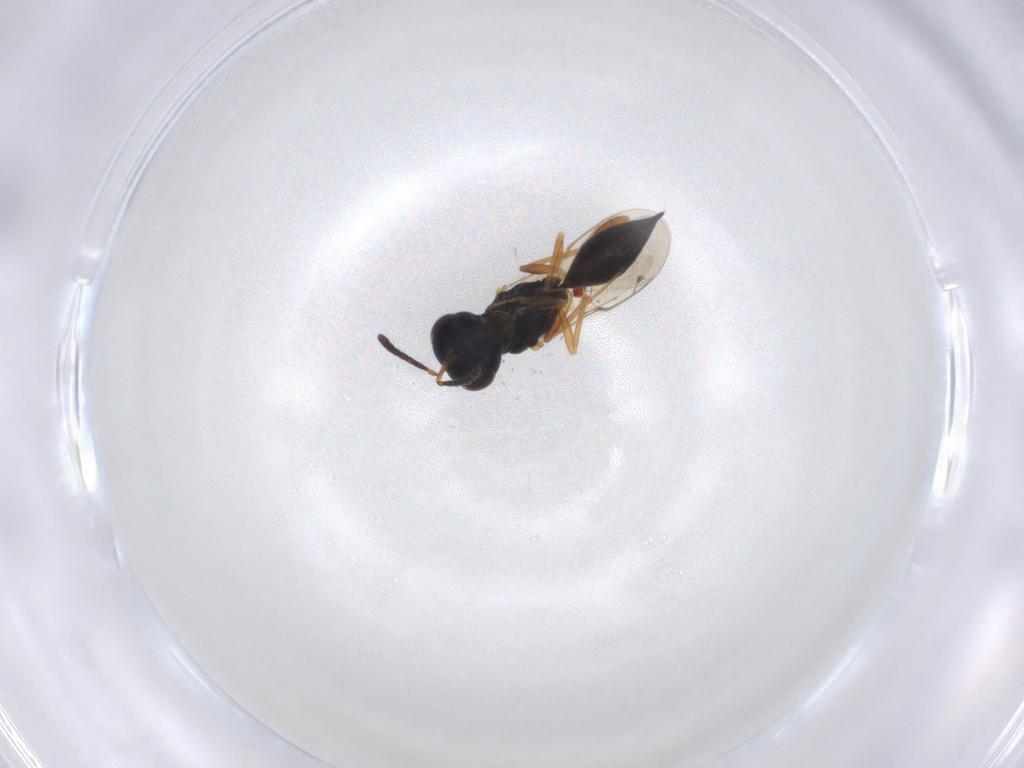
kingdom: Animalia
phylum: Arthropoda
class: Insecta
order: Hymenoptera
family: Formicidae
